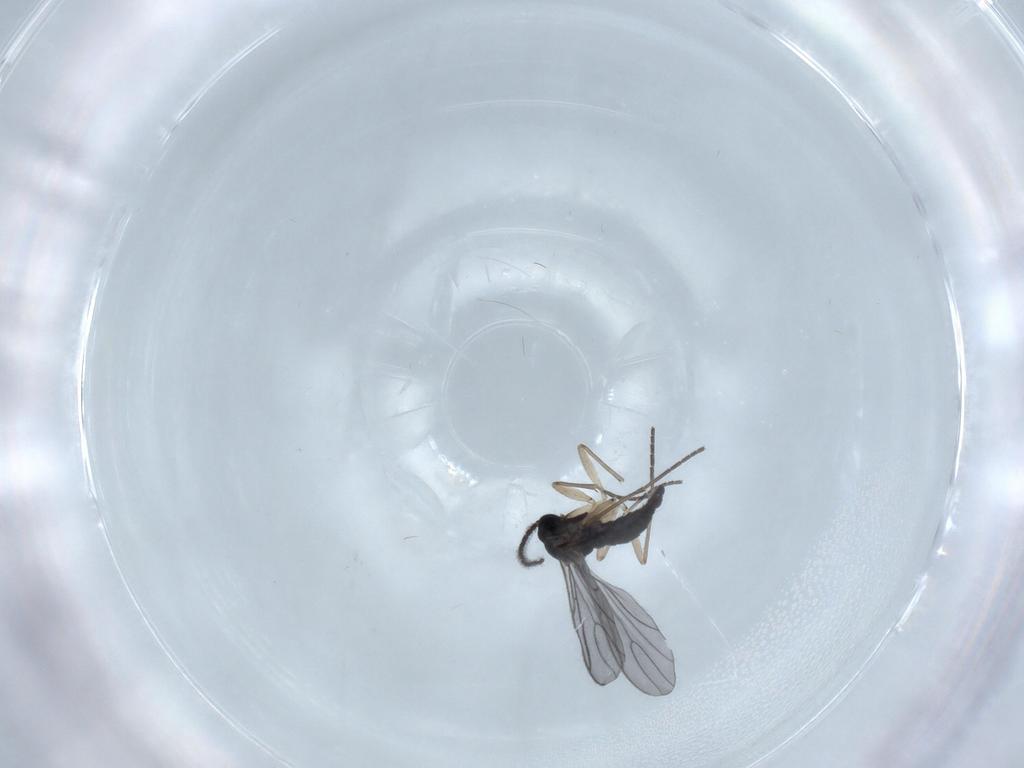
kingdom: Animalia
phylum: Arthropoda
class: Insecta
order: Diptera
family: Sciaridae
